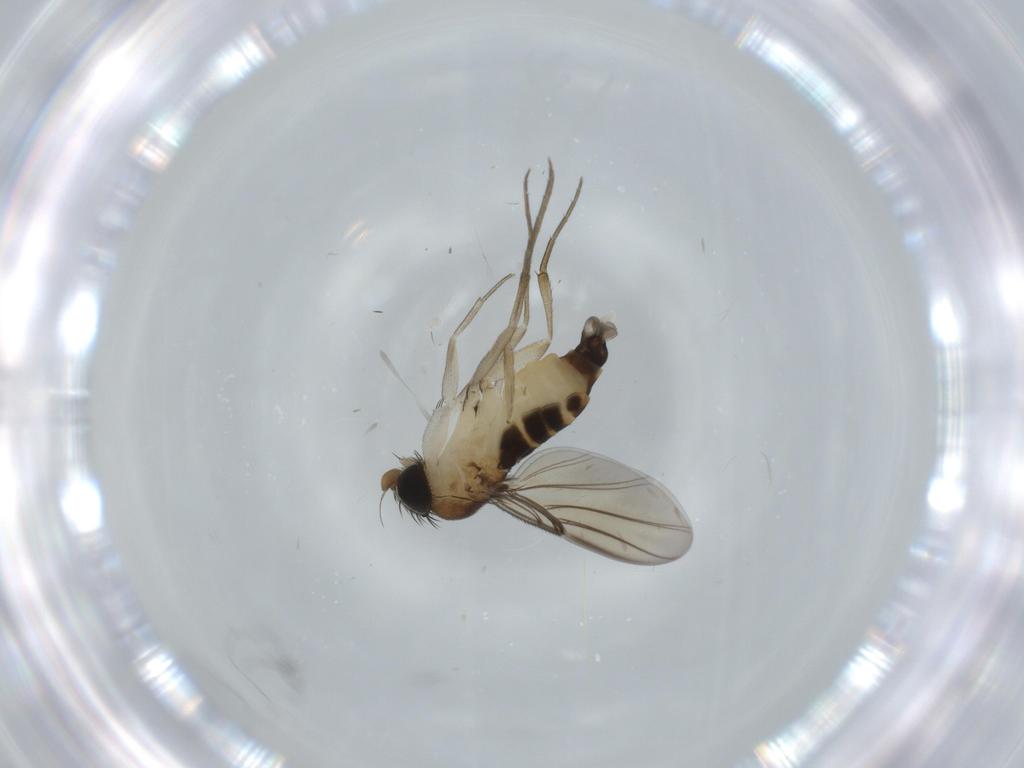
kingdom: Animalia
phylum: Arthropoda
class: Insecta
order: Diptera
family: Phoridae
